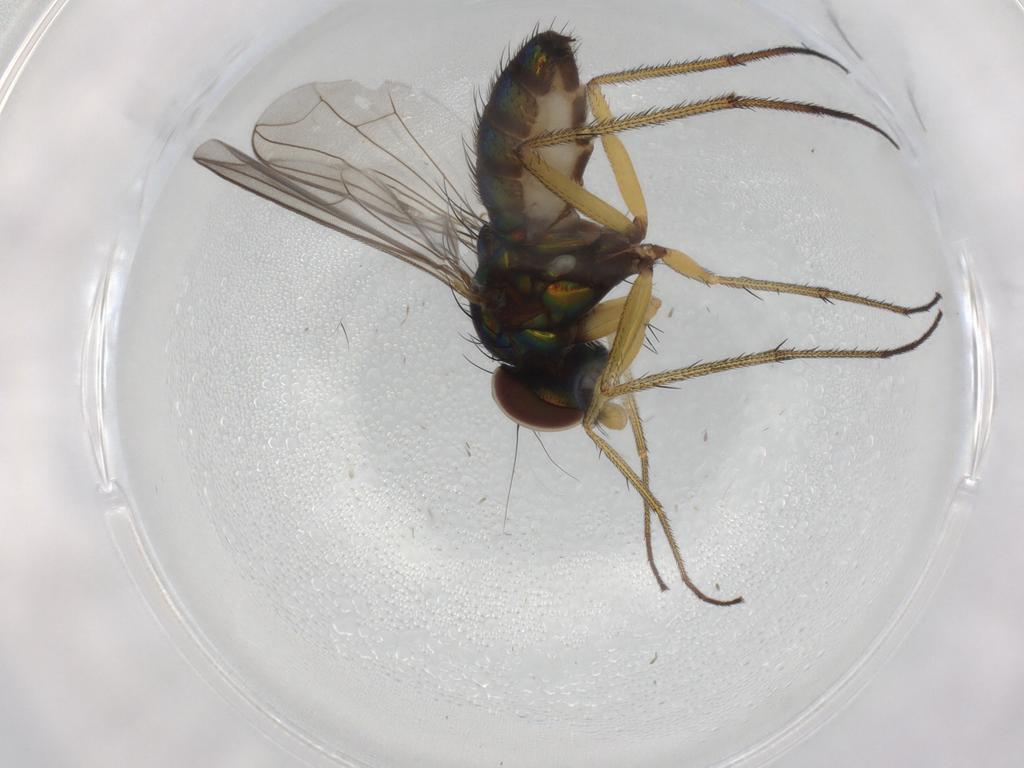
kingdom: Animalia
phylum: Arthropoda
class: Insecta
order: Diptera
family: Dolichopodidae
